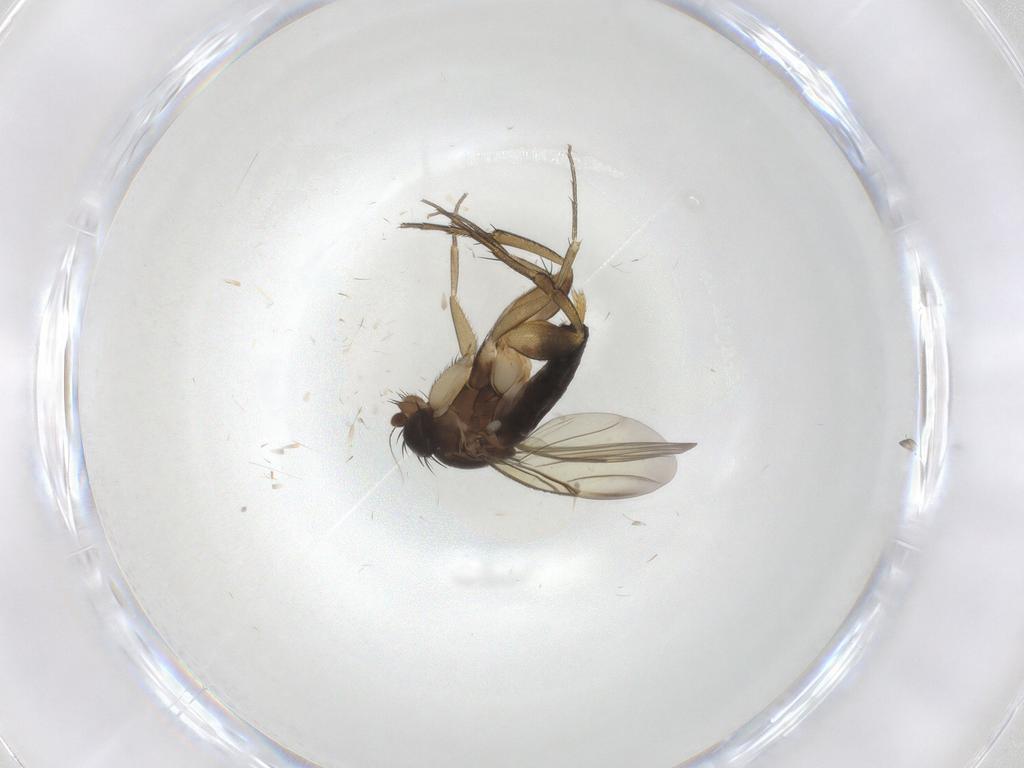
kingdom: Animalia
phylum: Arthropoda
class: Insecta
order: Diptera
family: Phoridae
